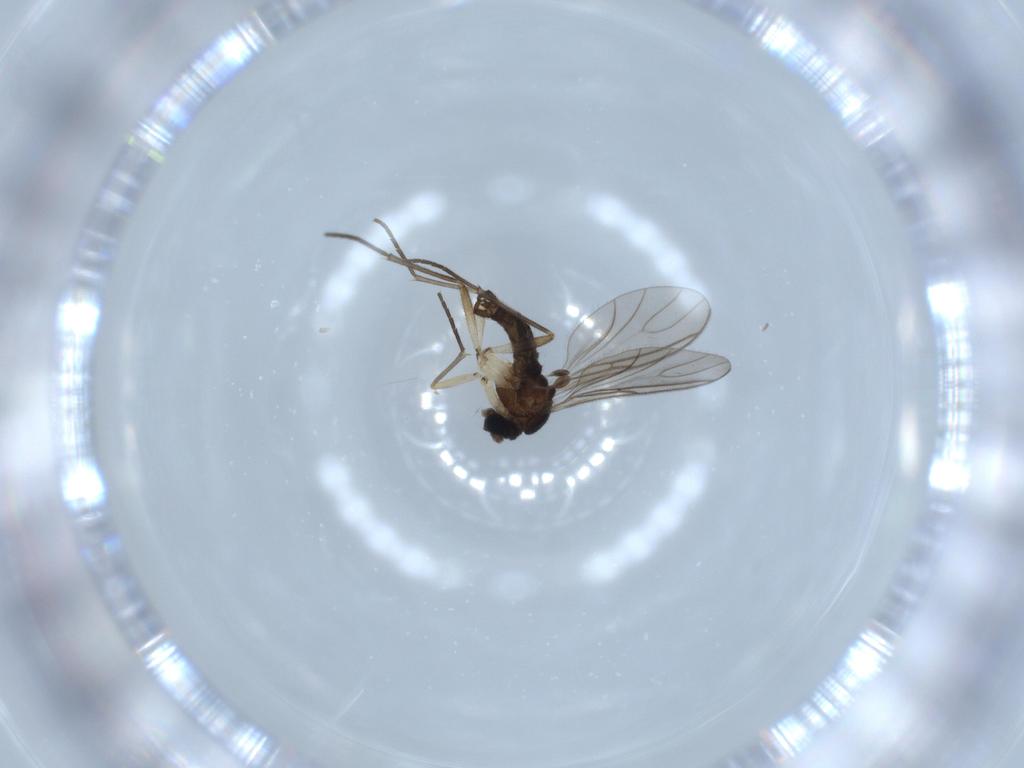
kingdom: Animalia
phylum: Arthropoda
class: Insecta
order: Diptera
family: Sciaridae
